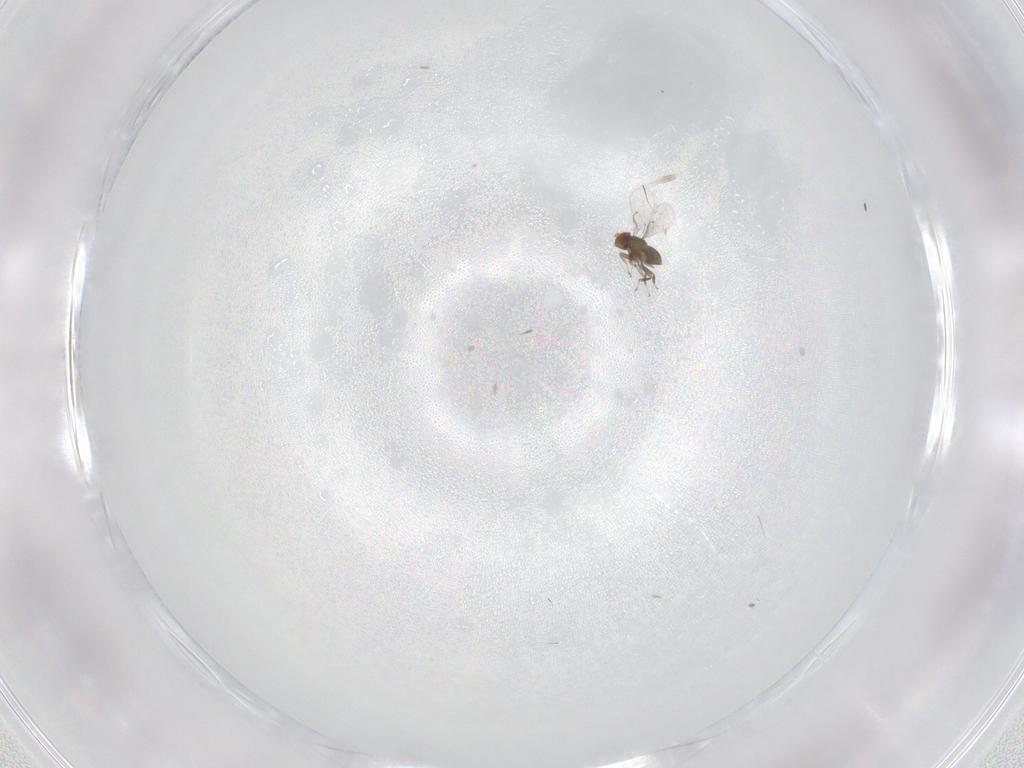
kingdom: Animalia
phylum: Arthropoda
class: Insecta
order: Hymenoptera
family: Trichogrammatidae
